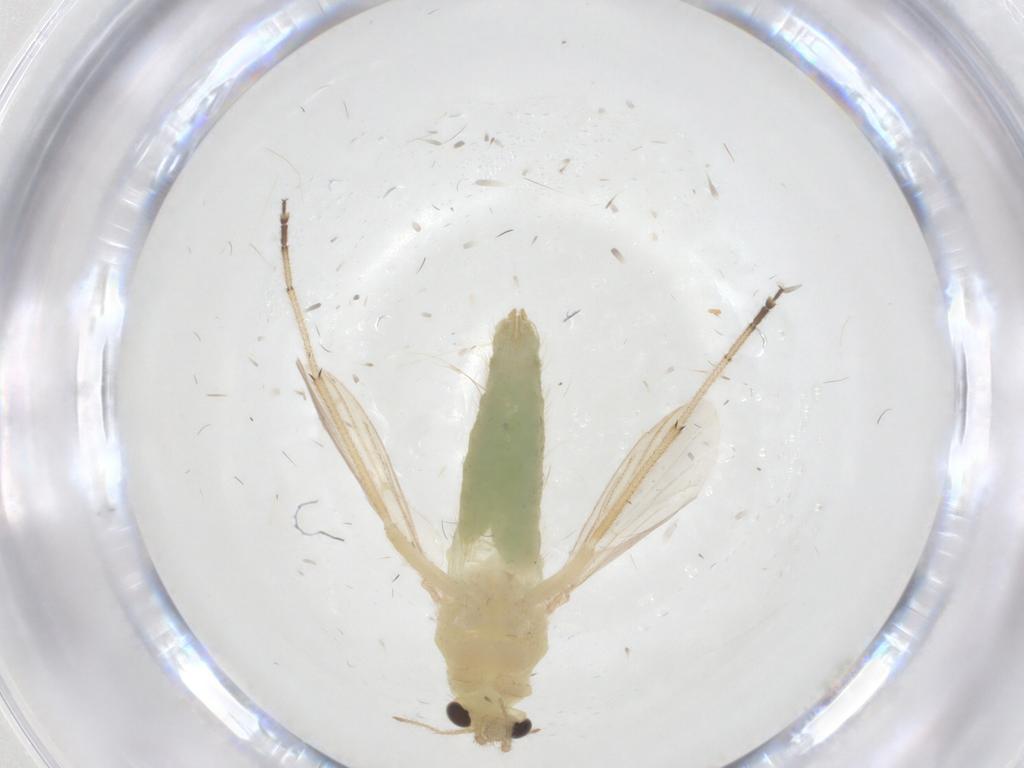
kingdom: Animalia
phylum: Arthropoda
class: Insecta
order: Diptera
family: Chironomidae
